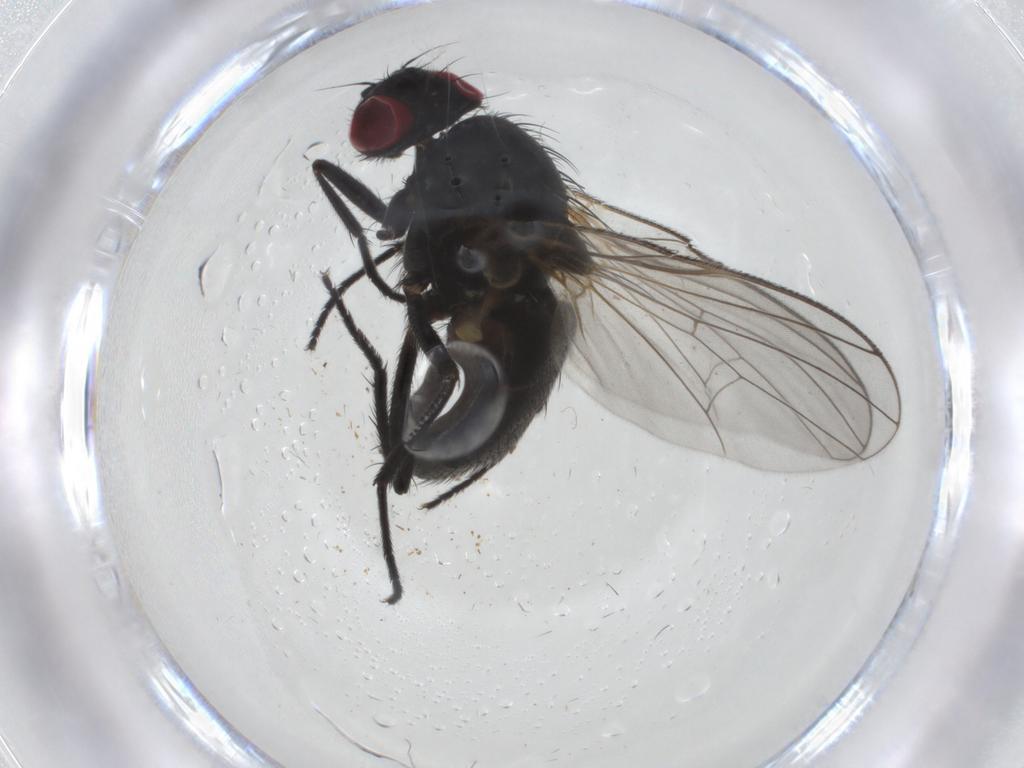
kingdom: Animalia
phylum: Arthropoda
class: Insecta
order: Diptera
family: Fannia
